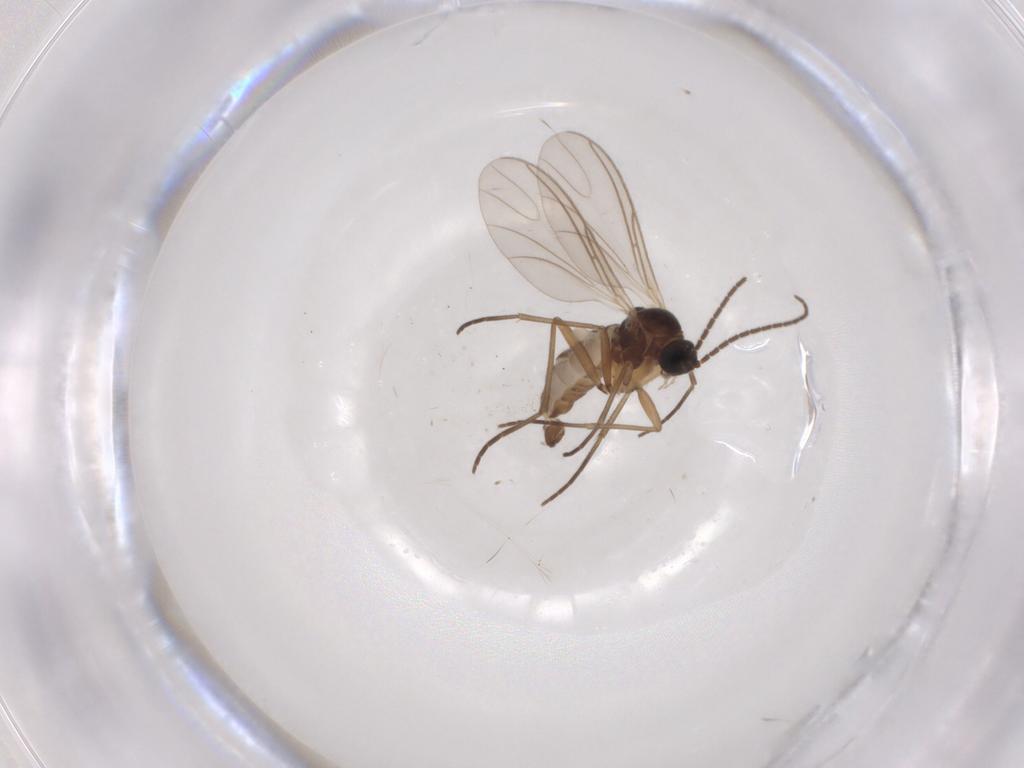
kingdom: Animalia
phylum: Arthropoda
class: Insecta
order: Diptera
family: Sciaridae
